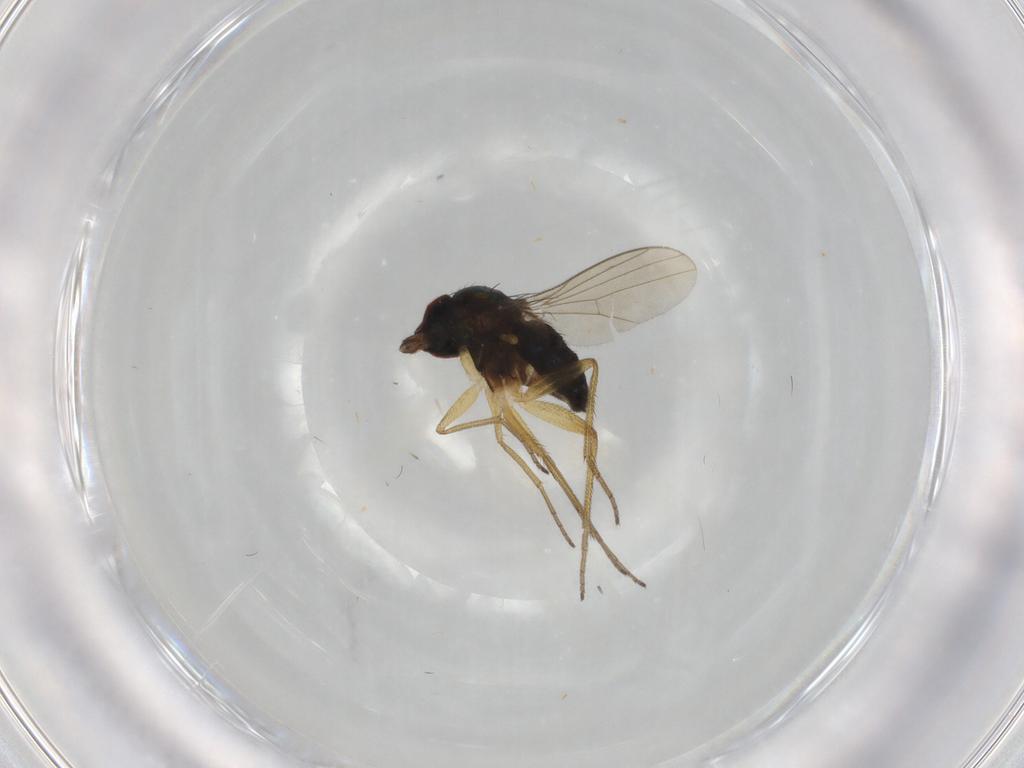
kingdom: Animalia
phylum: Arthropoda
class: Insecta
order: Diptera
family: Dolichopodidae
